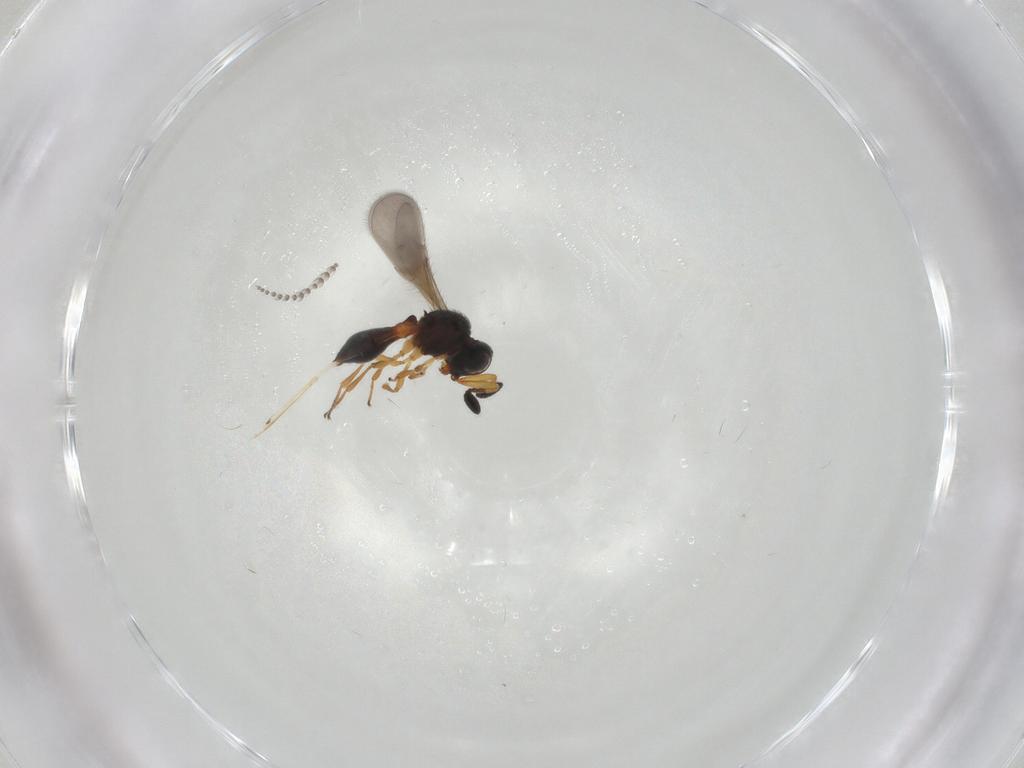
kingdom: Animalia
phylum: Arthropoda
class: Insecta
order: Hymenoptera
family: Scelionidae
